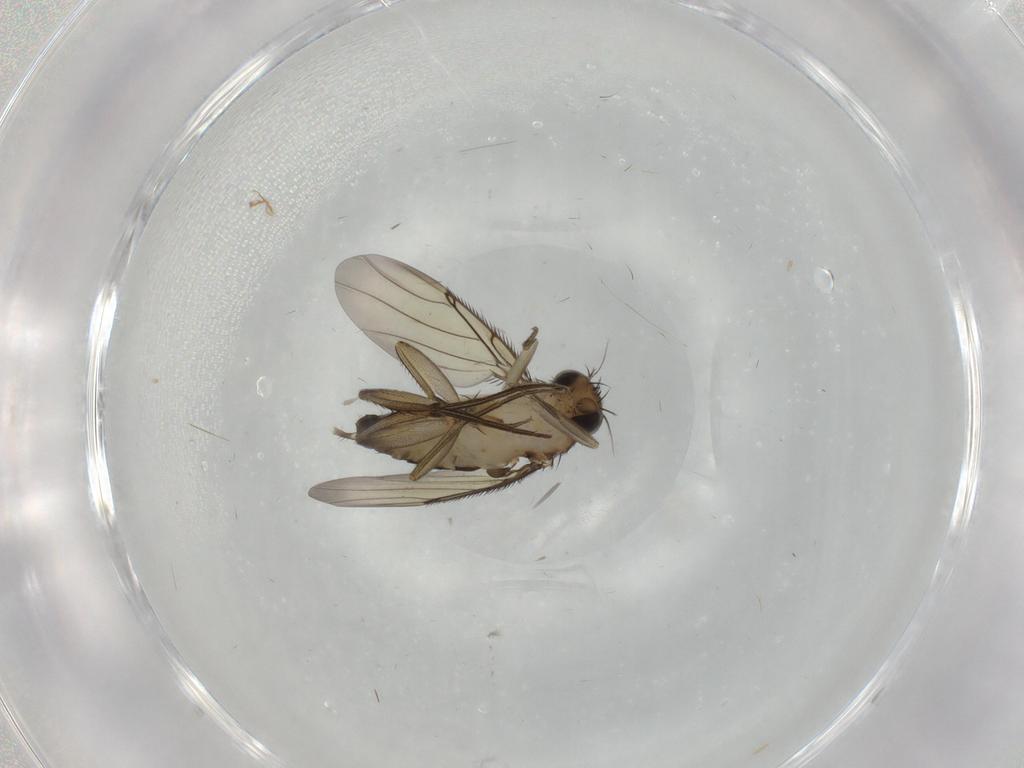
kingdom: Animalia
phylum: Arthropoda
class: Insecta
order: Diptera
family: Phoridae
